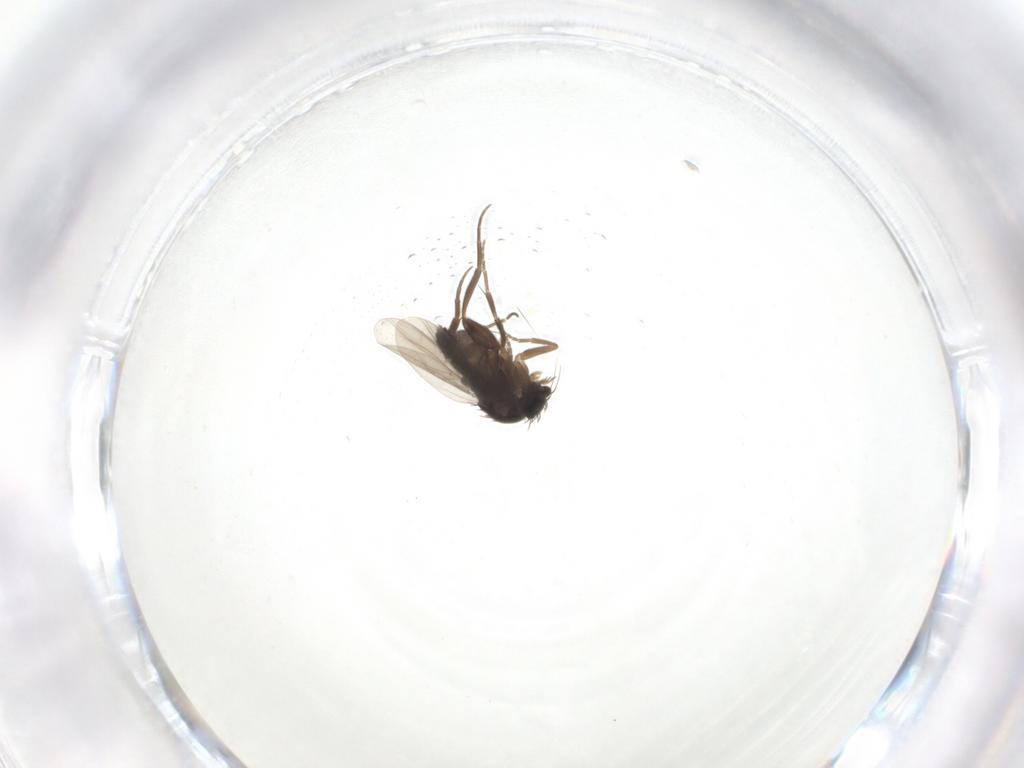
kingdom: Animalia
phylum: Arthropoda
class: Insecta
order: Diptera
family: Phoridae
